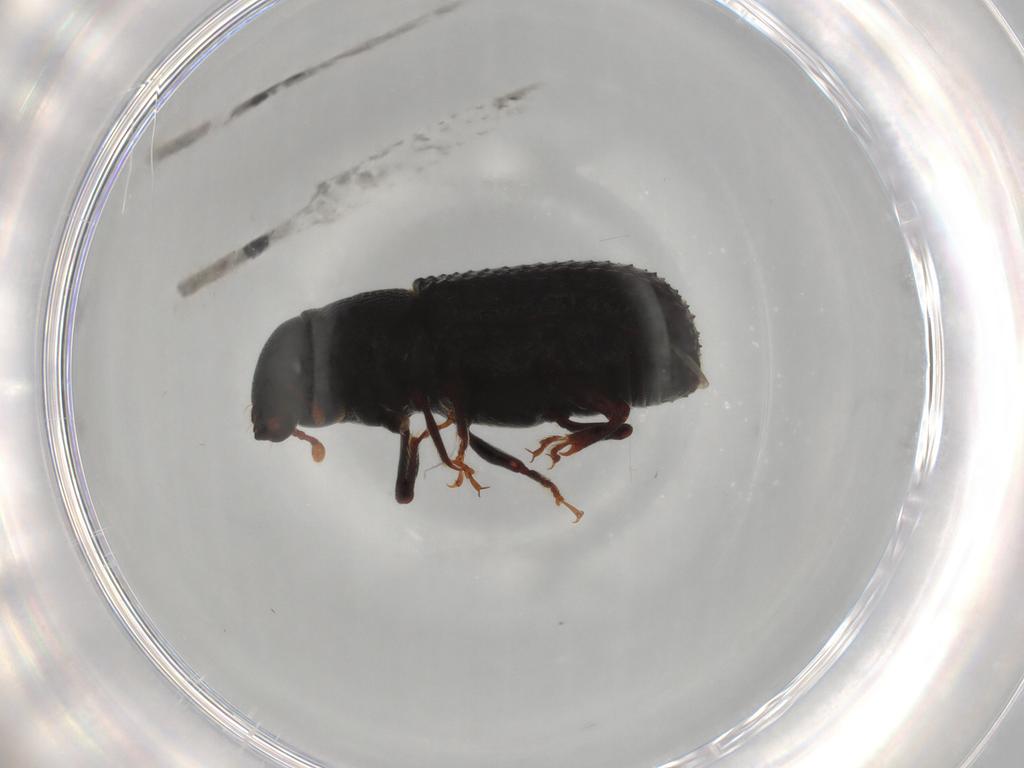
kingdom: Animalia
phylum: Arthropoda
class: Insecta
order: Coleoptera
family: Curculionidae
